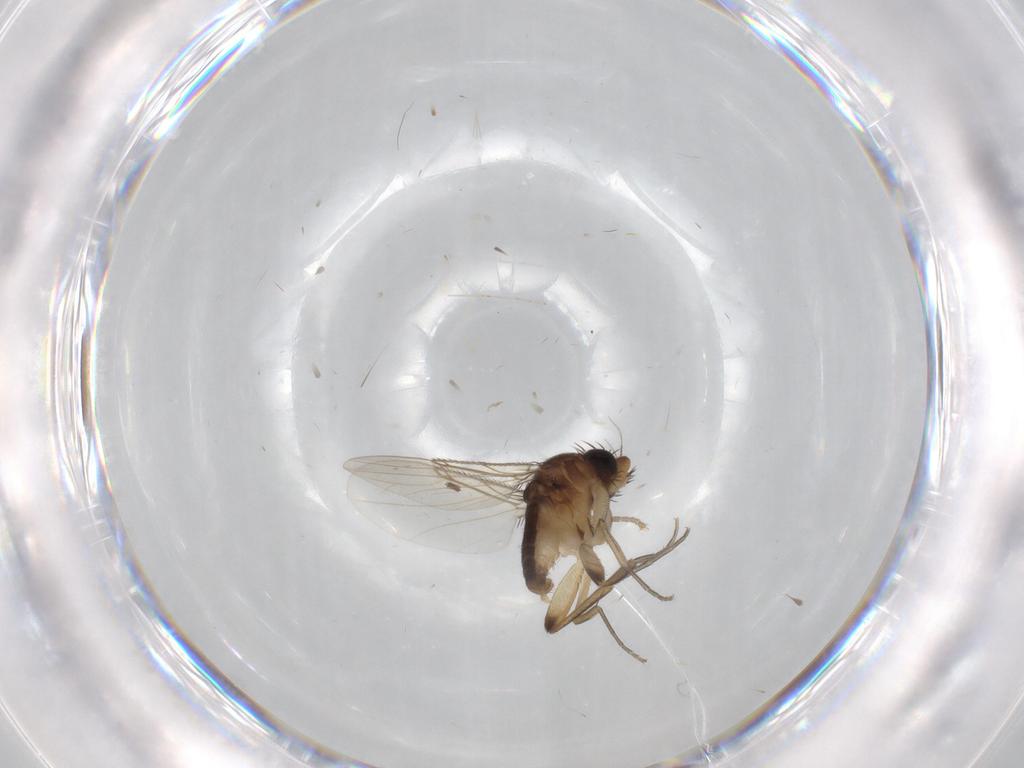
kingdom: Animalia
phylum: Arthropoda
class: Insecta
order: Diptera
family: Phoridae
